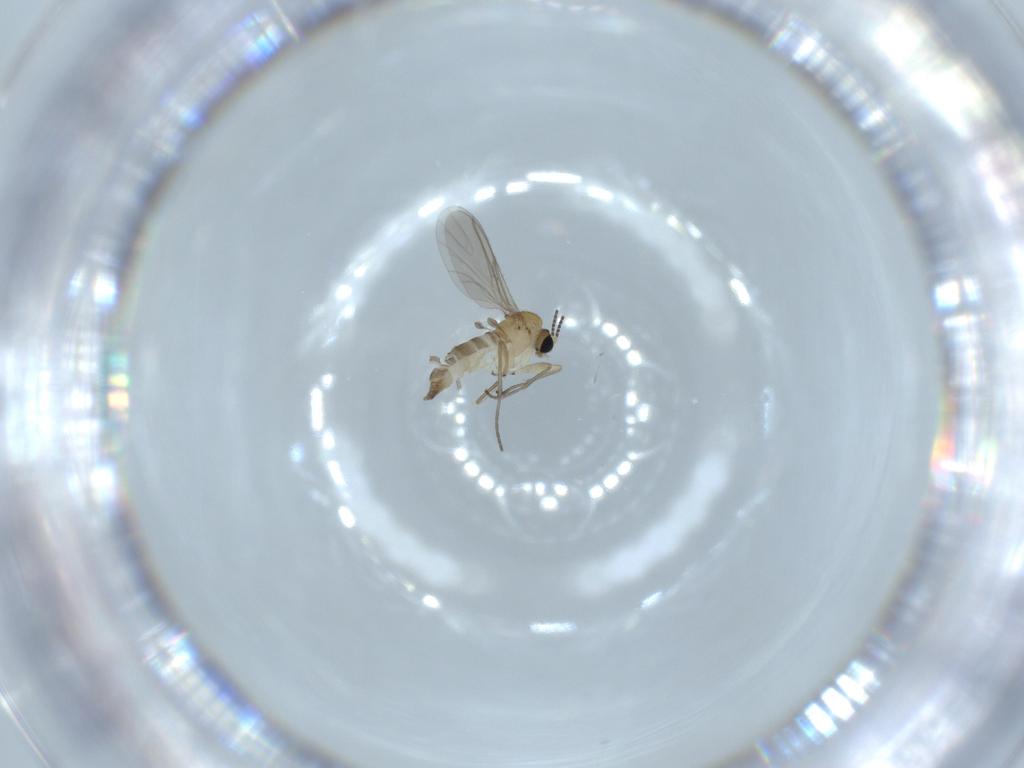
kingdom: Animalia
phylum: Arthropoda
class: Insecta
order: Diptera
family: Sciaridae
